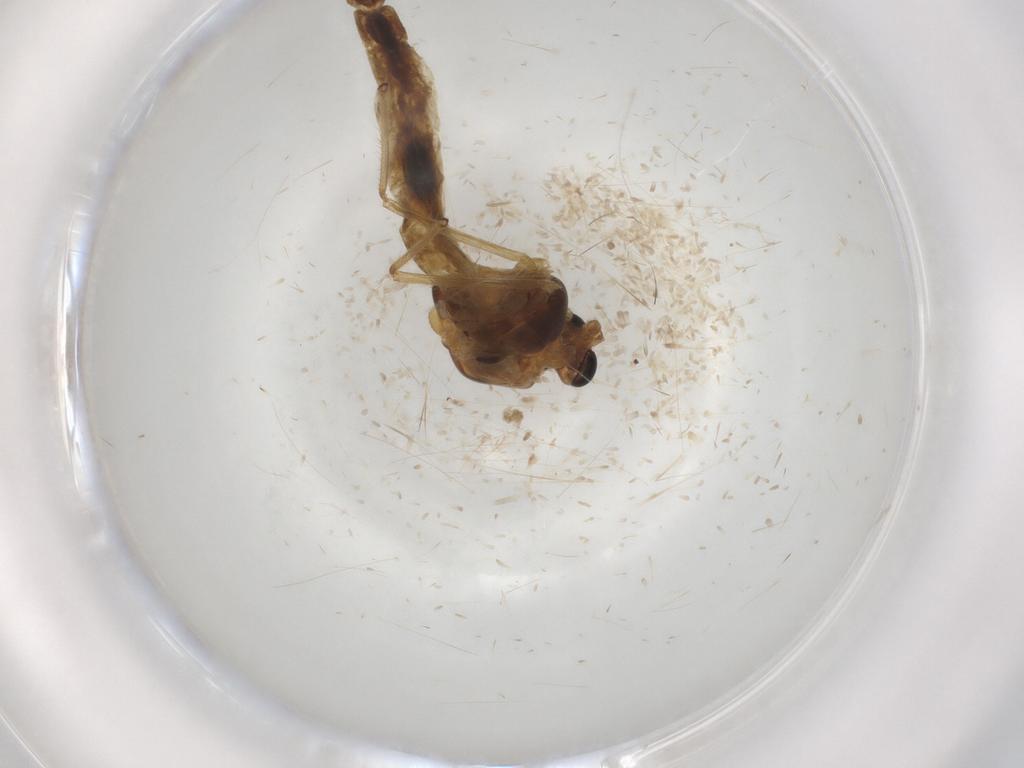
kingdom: Animalia
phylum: Arthropoda
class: Insecta
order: Diptera
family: Chironomidae
